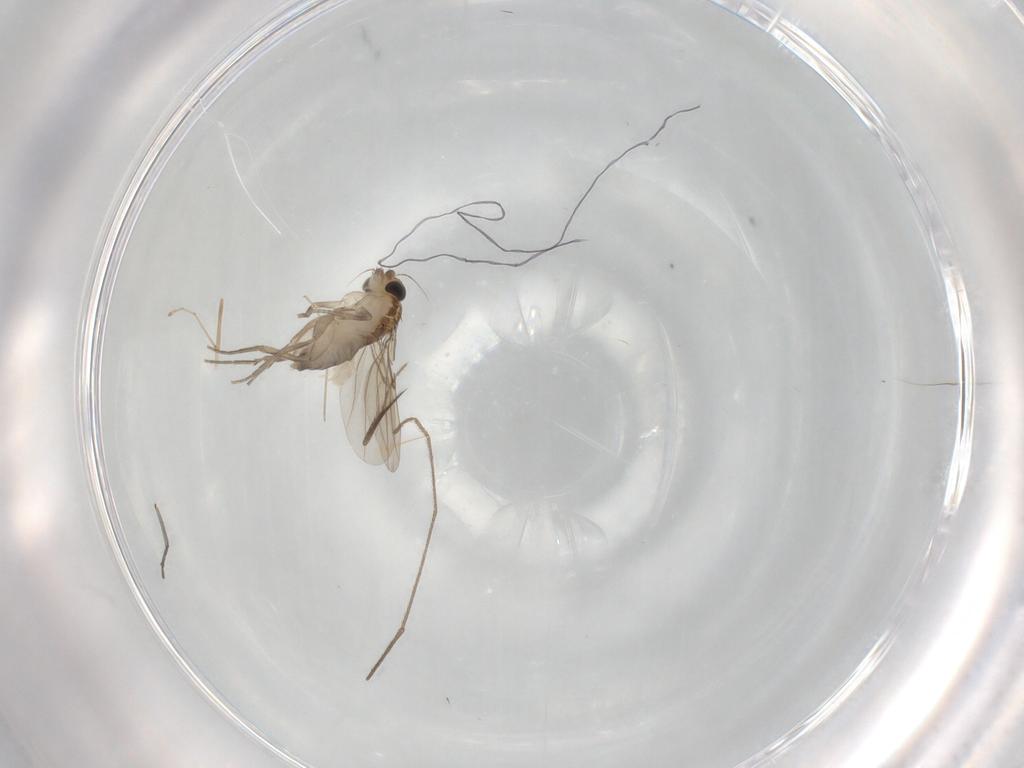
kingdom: Animalia
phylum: Arthropoda
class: Insecta
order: Diptera
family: Phoridae
